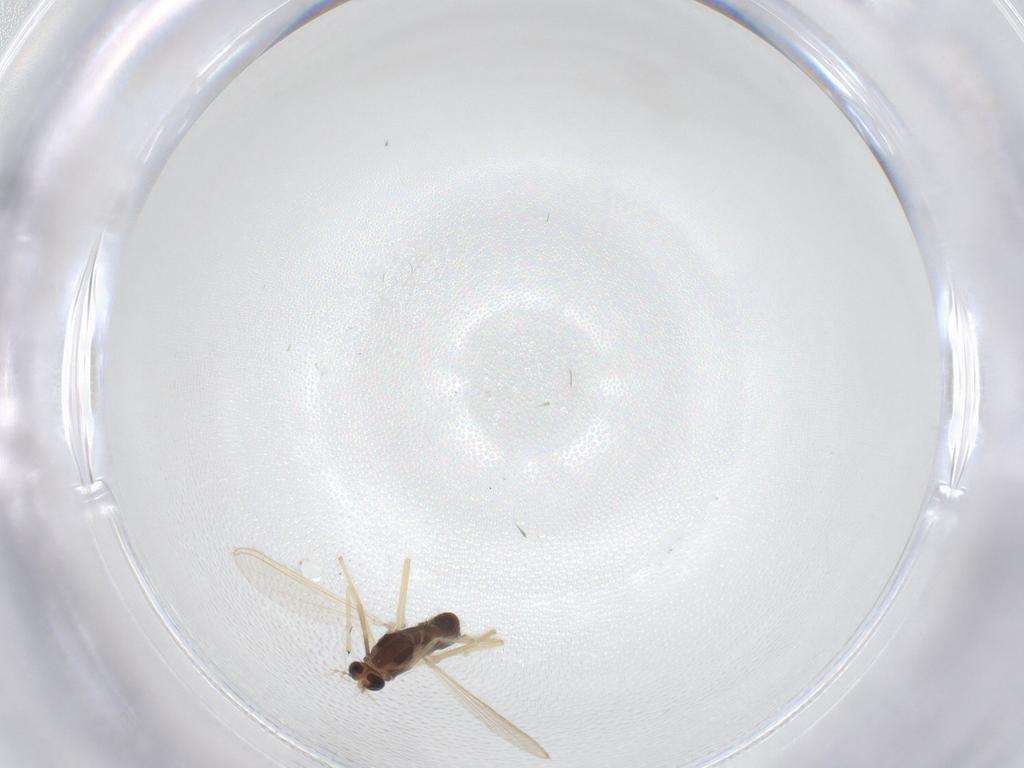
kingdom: Animalia
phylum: Arthropoda
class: Insecta
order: Diptera
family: Chironomidae
